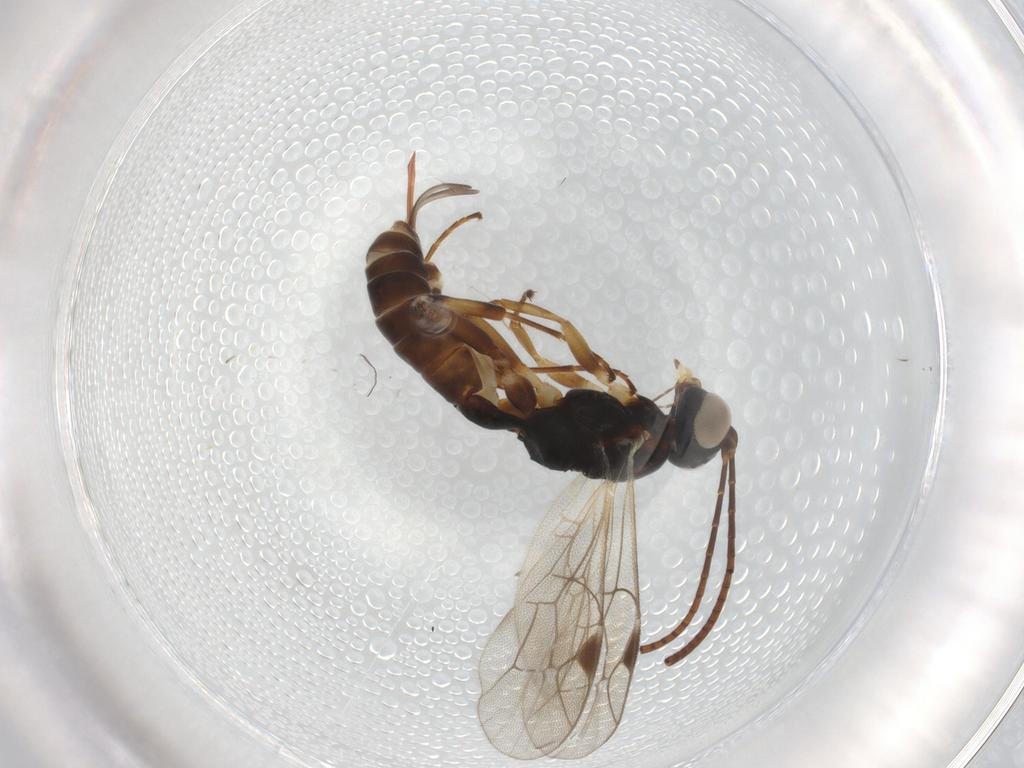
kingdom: Animalia
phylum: Arthropoda
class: Insecta
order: Hymenoptera
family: Ichneumonidae
